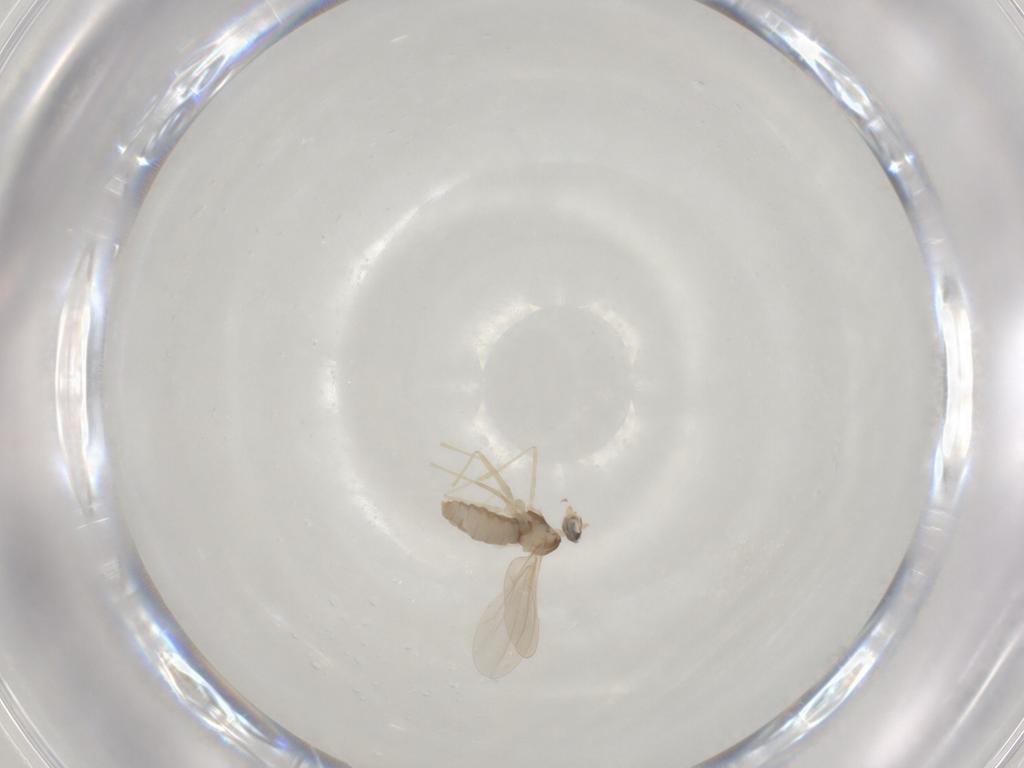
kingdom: Animalia
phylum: Arthropoda
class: Insecta
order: Diptera
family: Cecidomyiidae
